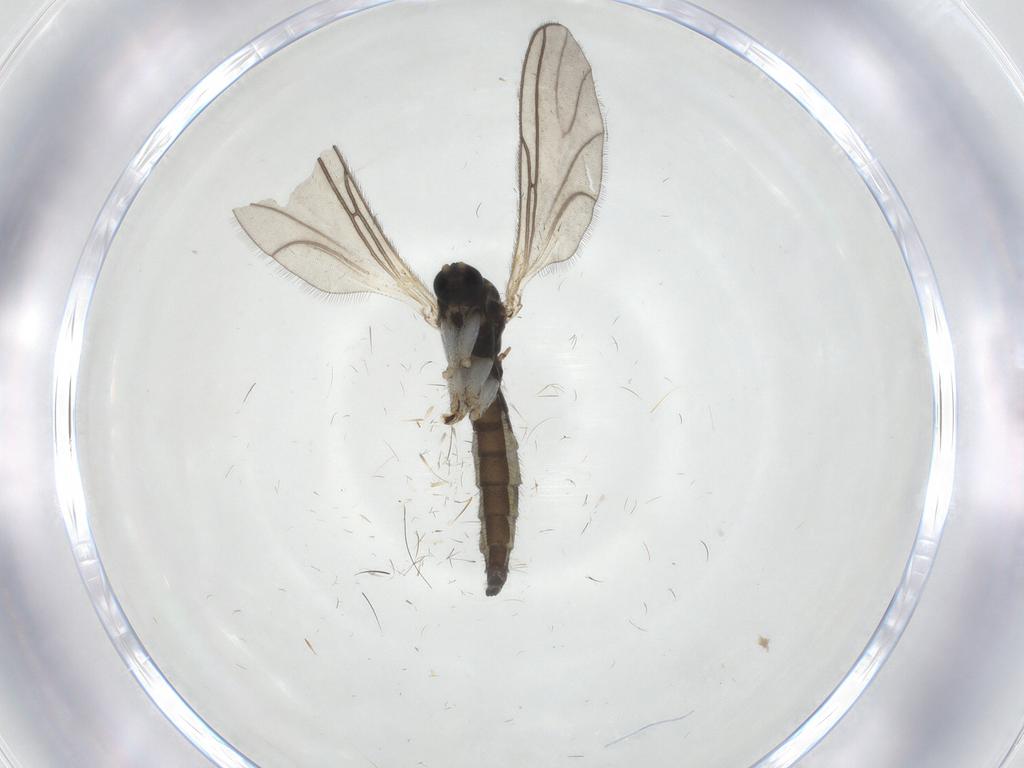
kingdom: Animalia
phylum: Arthropoda
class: Insecta
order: Diptera
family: Sciaridae
